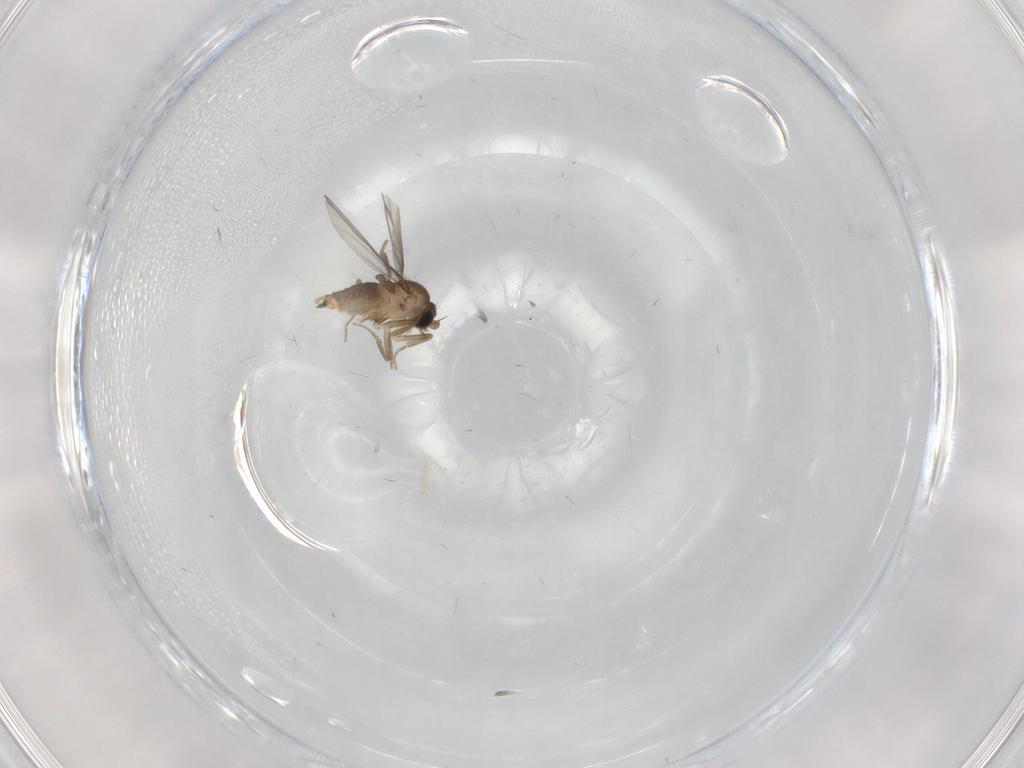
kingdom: Animalia
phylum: Arthropoda
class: Insecta
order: Diptera
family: Chironomidae
